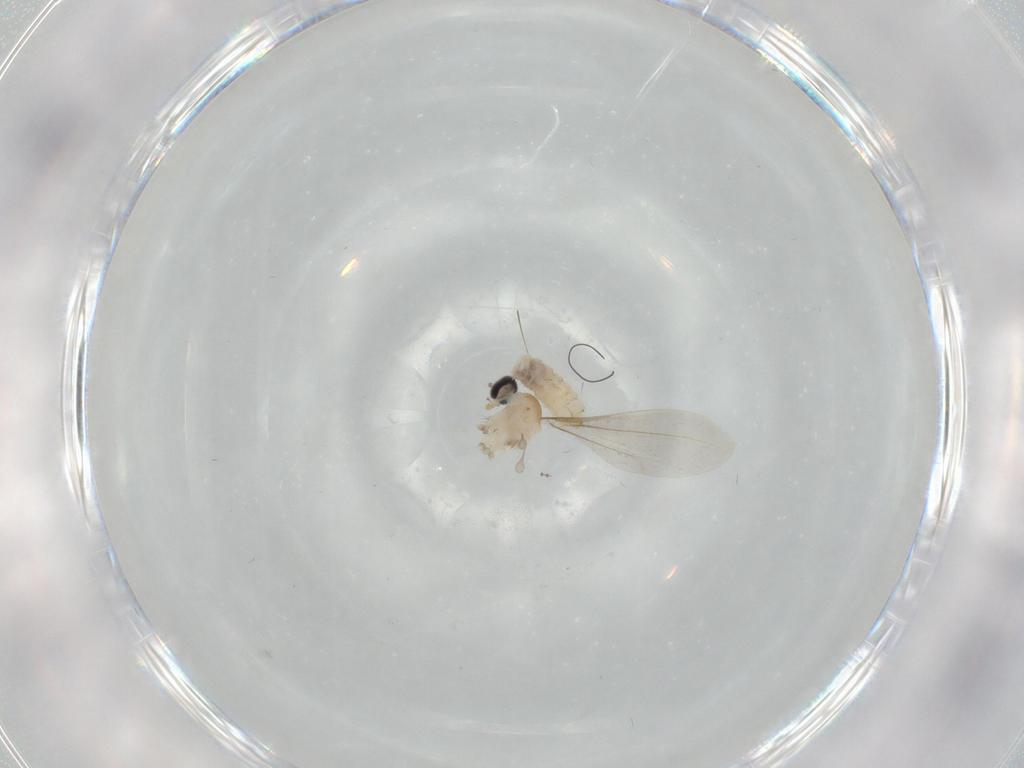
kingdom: Animalia
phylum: Arthropoda
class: Insecta
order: Diptera
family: Cecidomyiidae
